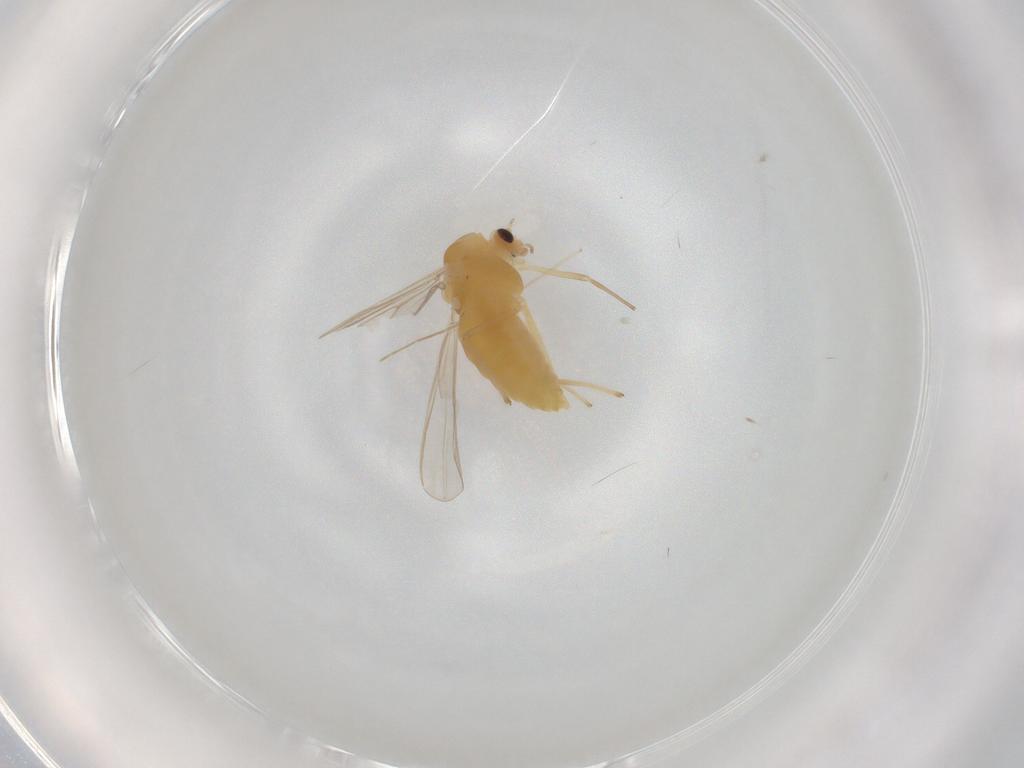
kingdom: Animalia
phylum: Arthropoda
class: Insecta
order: Diptera
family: Chironomidae
